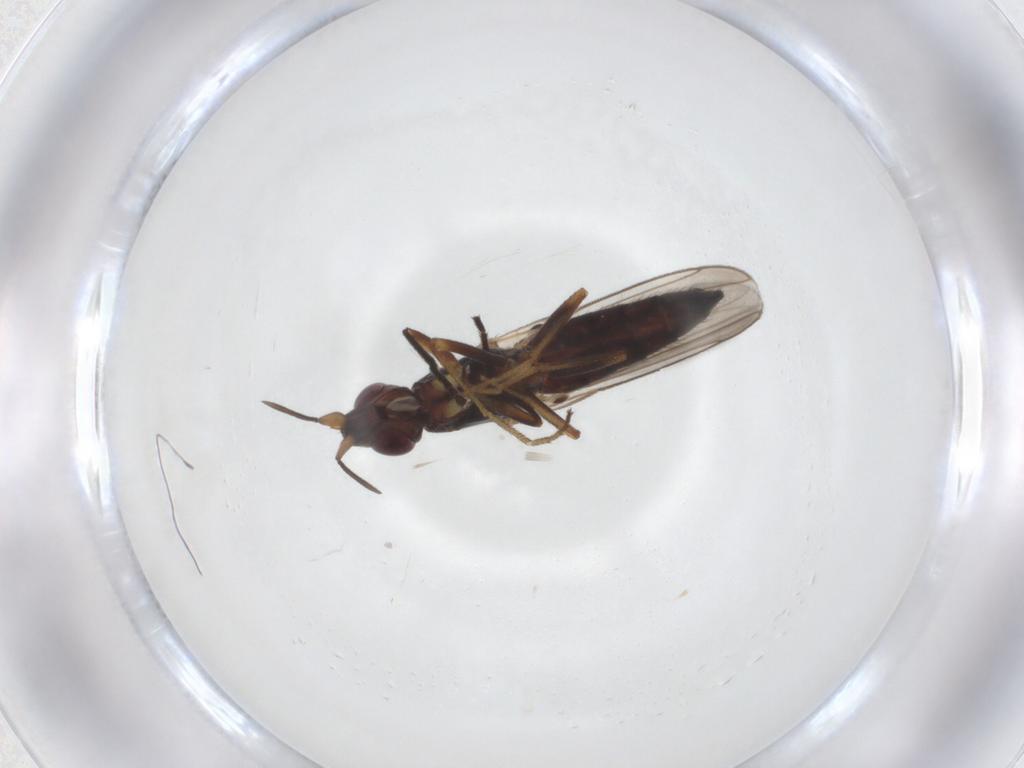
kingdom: Animalia
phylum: Arthropoda
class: Insecta
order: Diptera
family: Chloropidae
